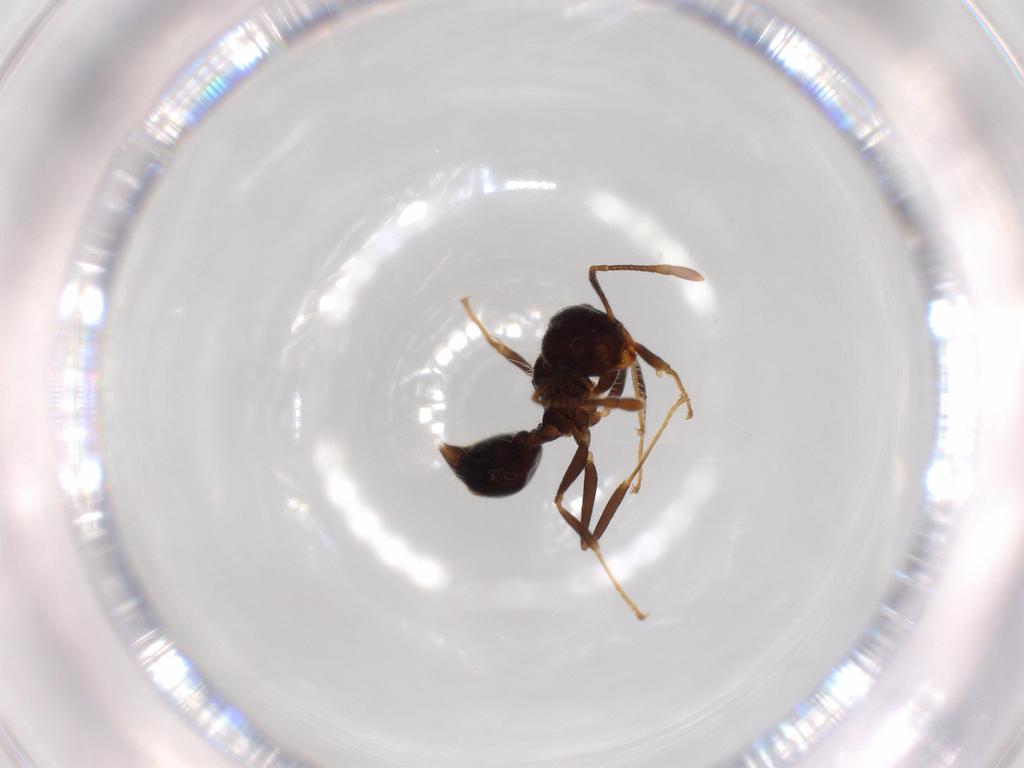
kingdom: Animalia
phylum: Arthropoda
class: Insecta
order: Hymenoptera
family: Formicidae
